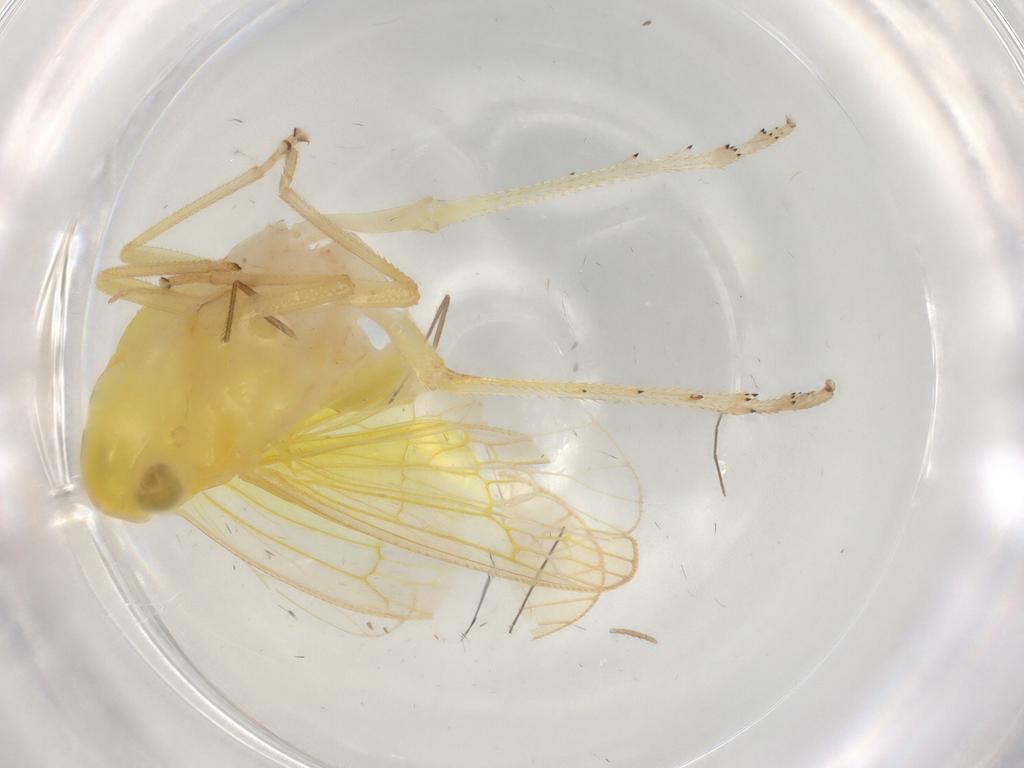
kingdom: Animalia
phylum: Arthropoda
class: Insecta
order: Hemiptera
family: Tropiduchidae
